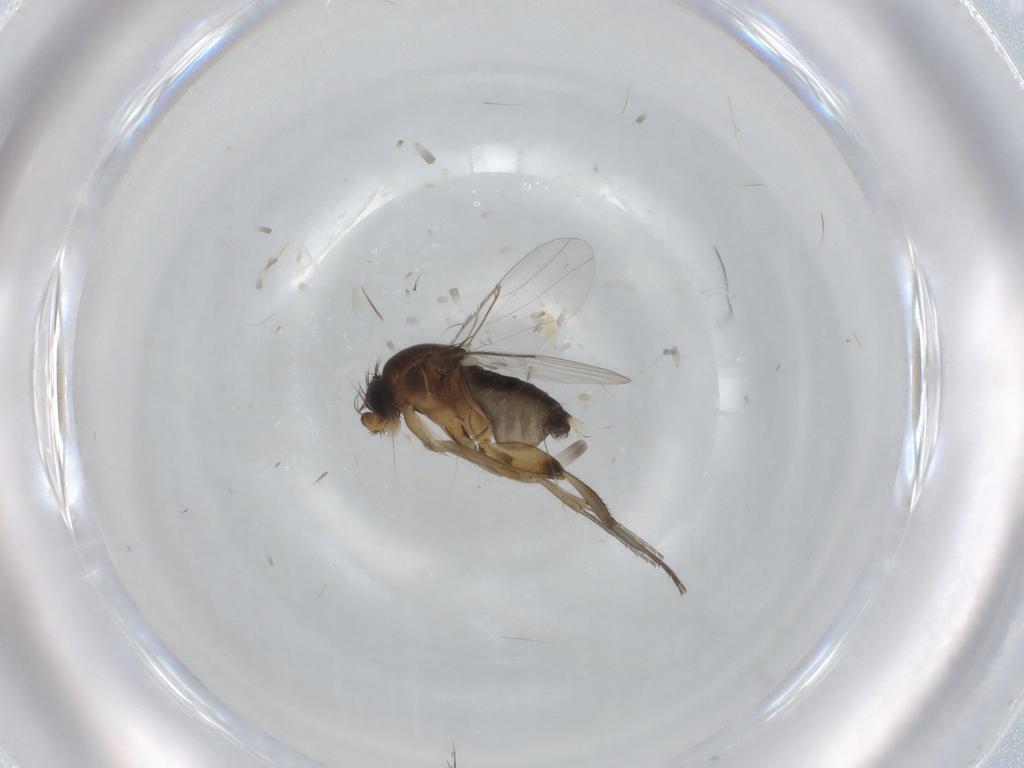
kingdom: Animalia
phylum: Arthropoda
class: Insecta
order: Diptera
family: Phoridae
